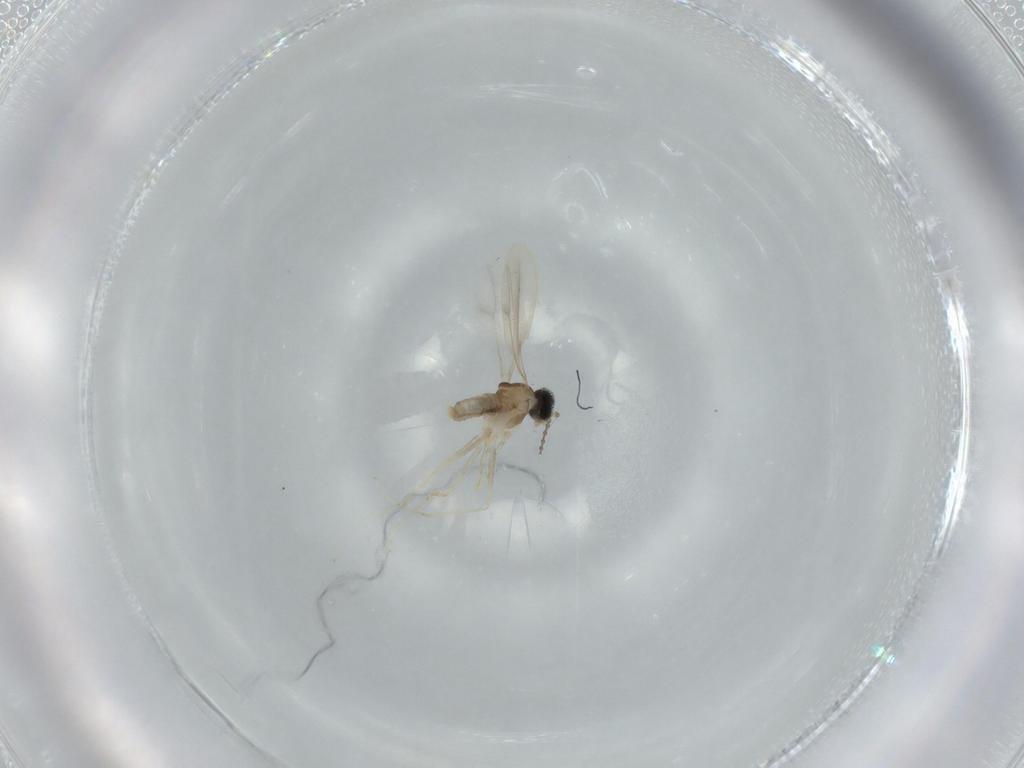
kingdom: Animalia
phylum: Arthropoda
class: Insecta
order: Diptera
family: Cecidomyiidae
